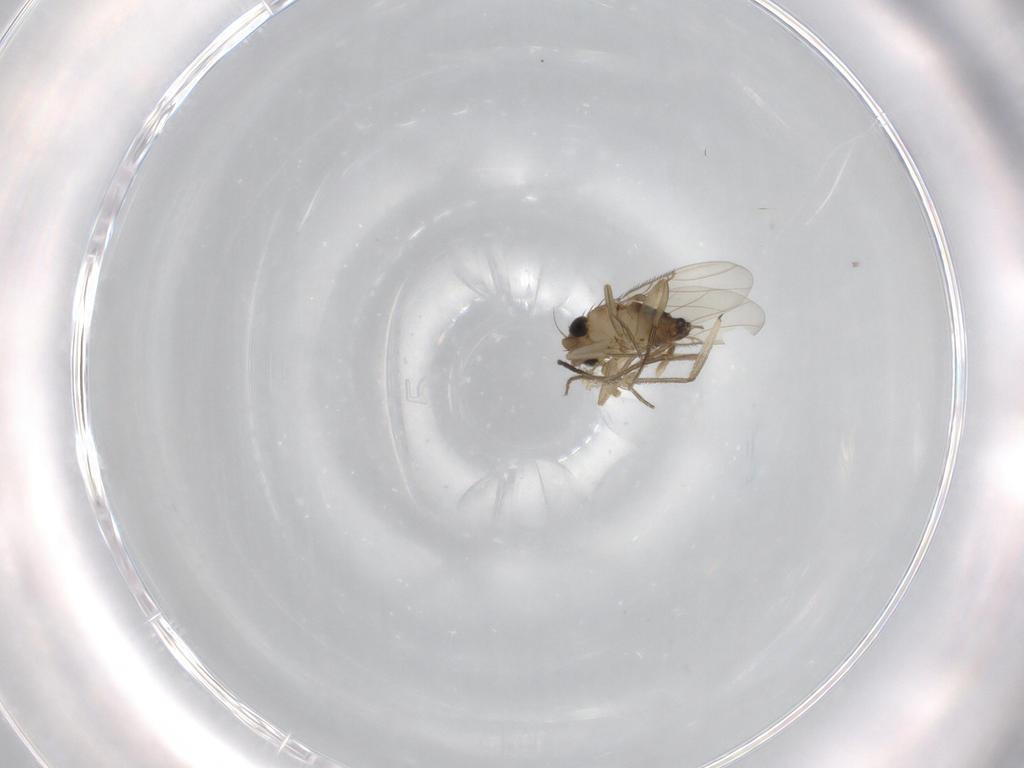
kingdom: Animalia
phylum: Arthropoda
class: Insecta
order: Diptera
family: Chironomidae
